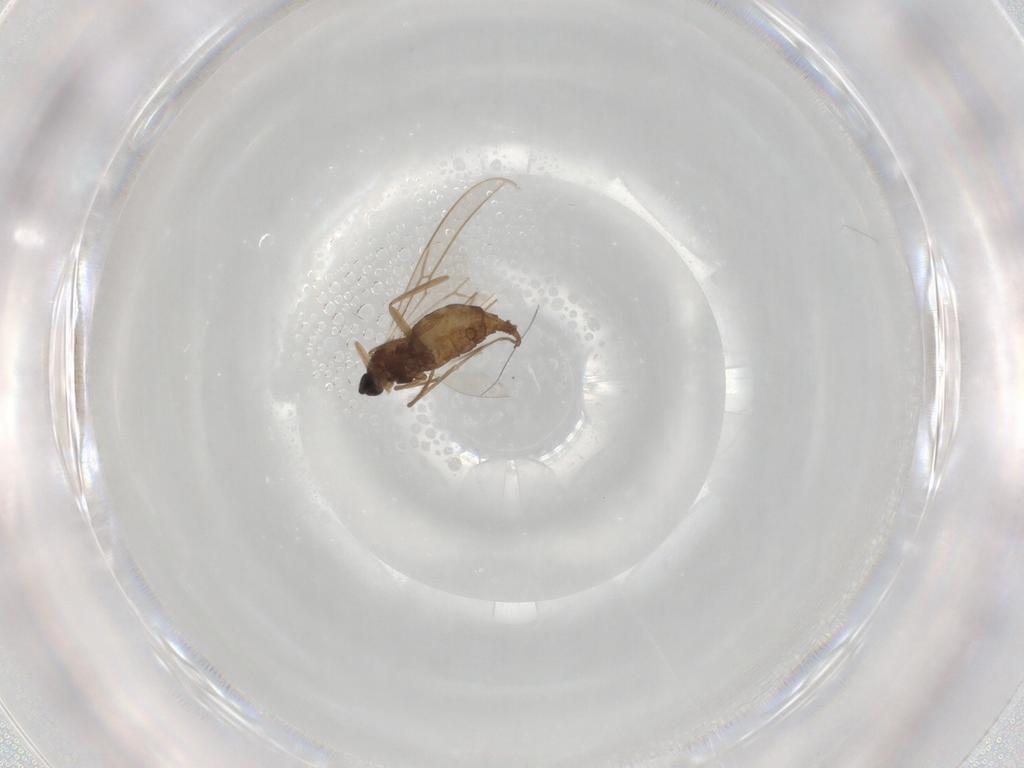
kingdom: Animalia
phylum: Arthropoda
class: Insecta
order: Diptera
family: Cecidomyiidae
